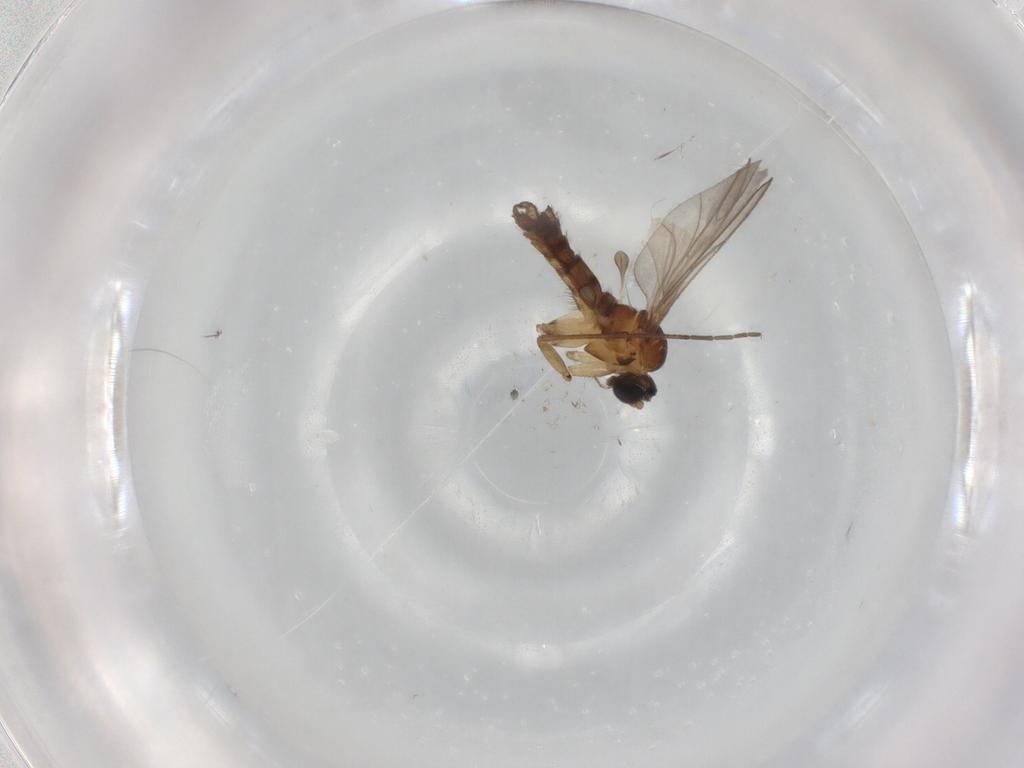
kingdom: Animalia
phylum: Arthropoda
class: Insecta
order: Diptera
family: Sciaridae
